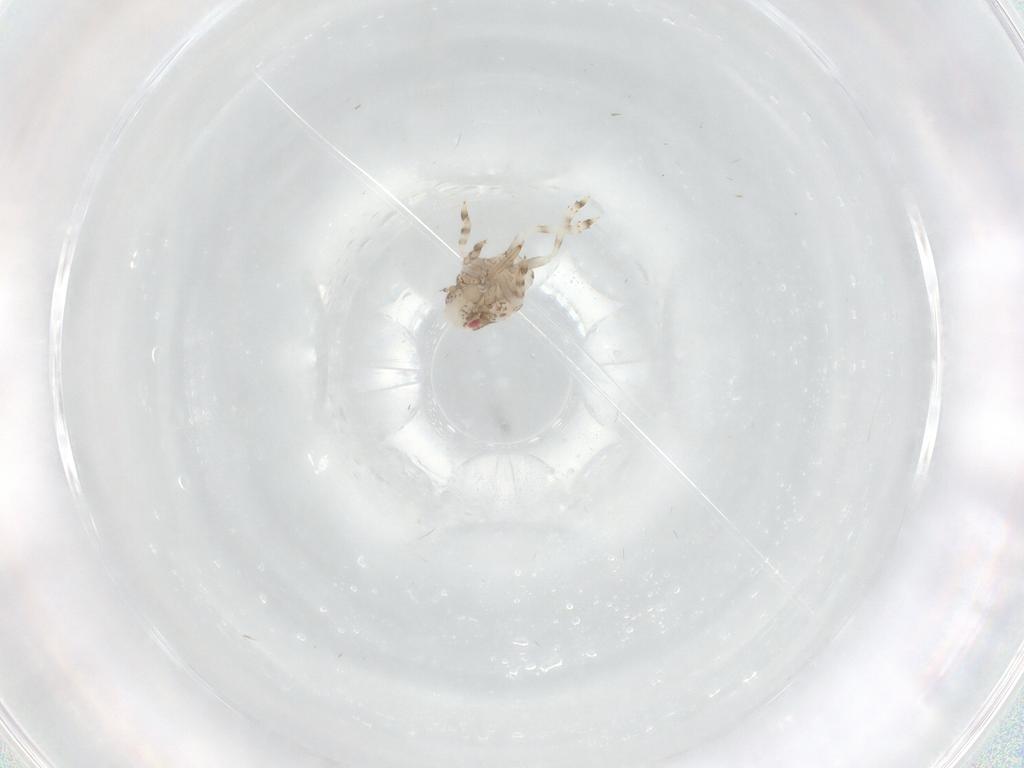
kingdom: Animalia
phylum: Arthropoda
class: Insecta
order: Hemiptera
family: Acanaloniidae
